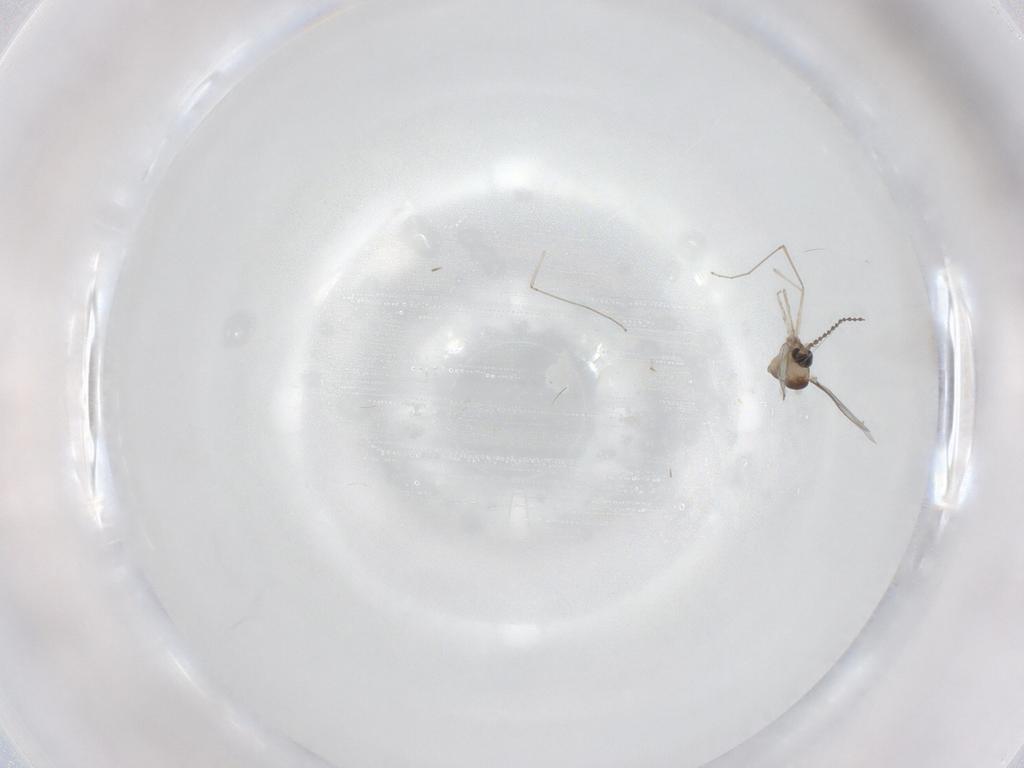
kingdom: Animalia
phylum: Arthropoda
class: Insecta
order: Diptera
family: Cecidomyiidae
